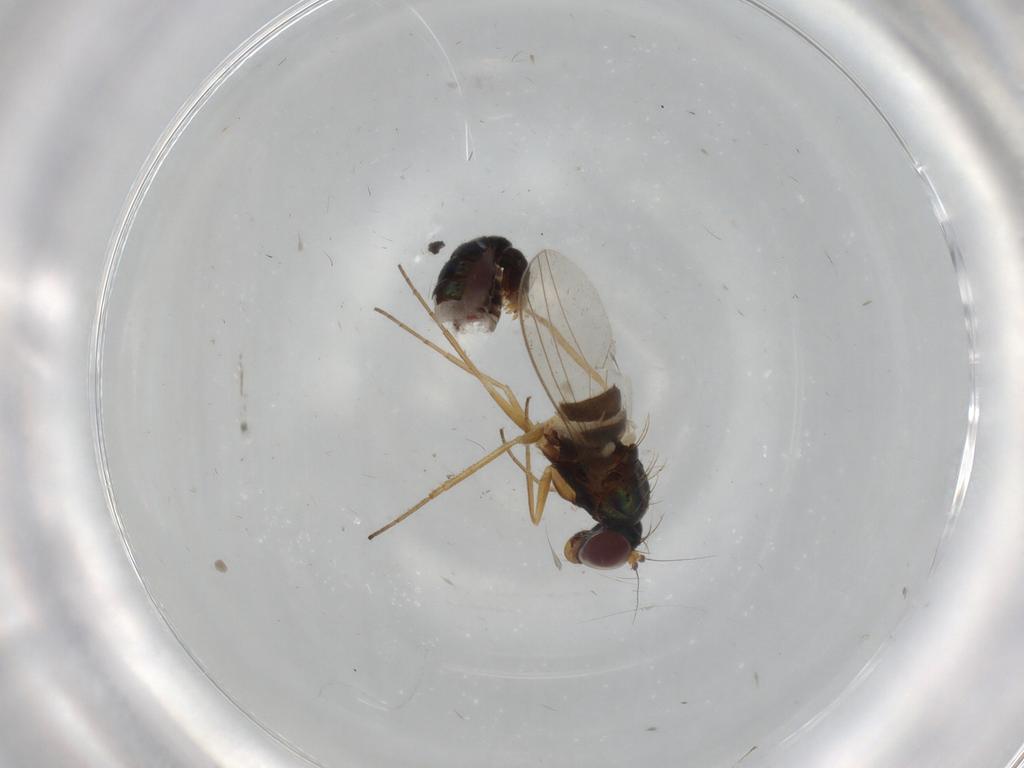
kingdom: Animalia
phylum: Arthropoda
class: Insecta
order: Diptera
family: Dolichopodidae
